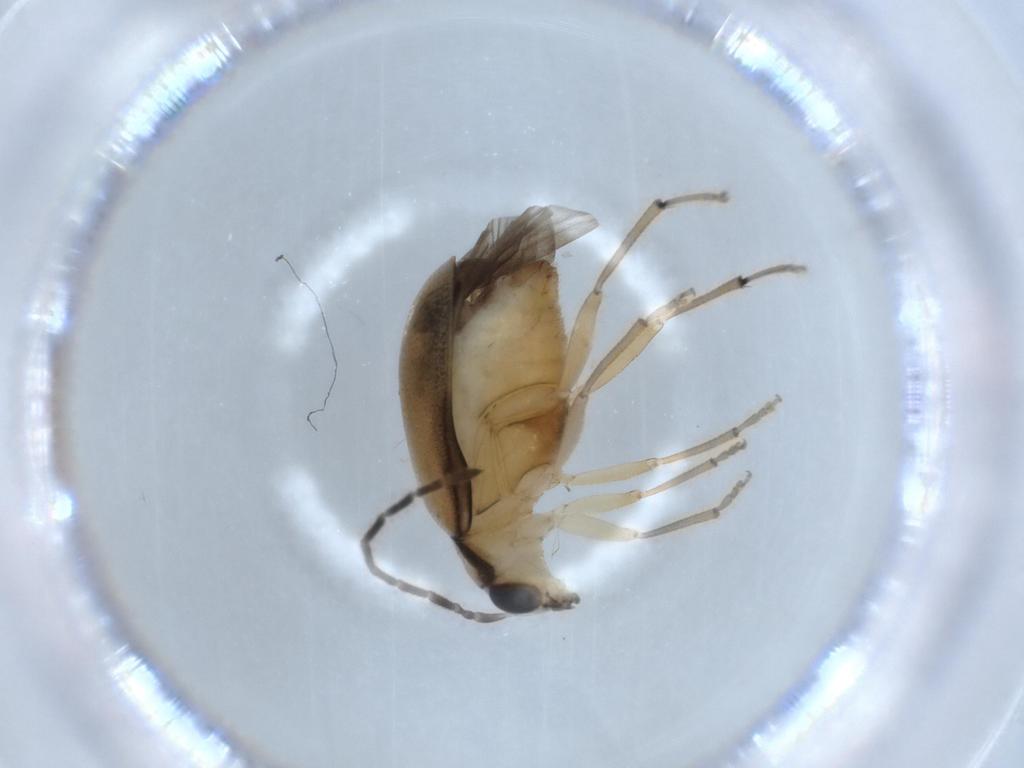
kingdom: Animalia
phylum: Arthropoda
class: Insecta
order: Coleoptera
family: Chrysomelidae
